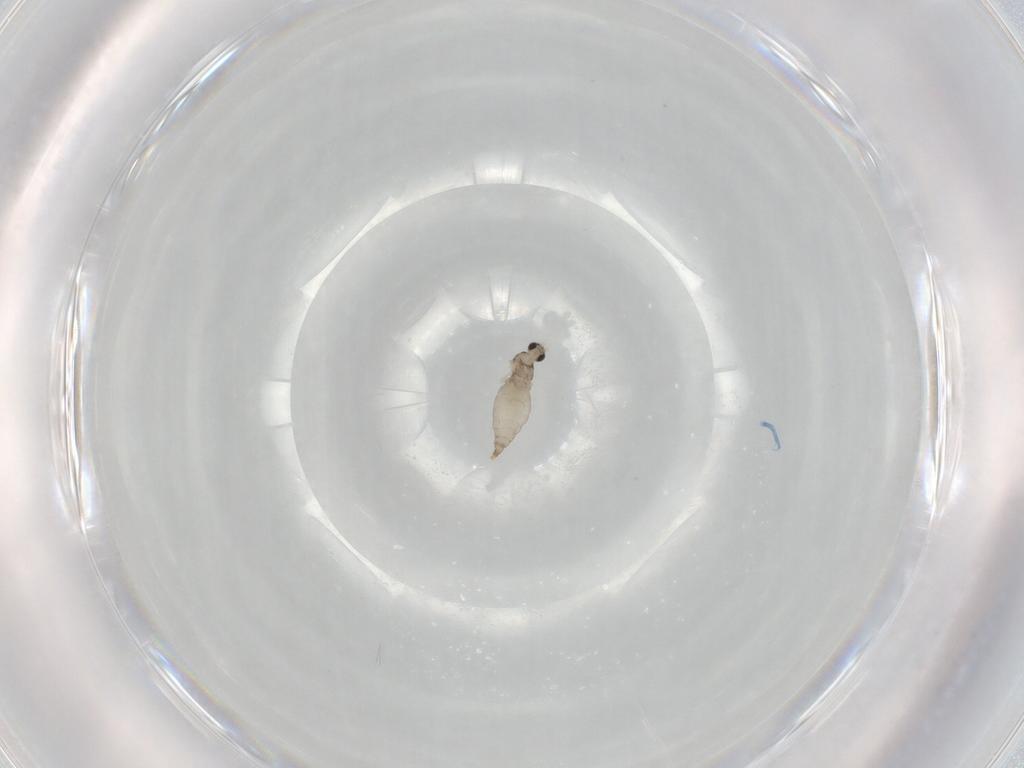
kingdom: Animalia
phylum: Arthropoda
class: Insecta
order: Diptera
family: Cecidomyiidae
